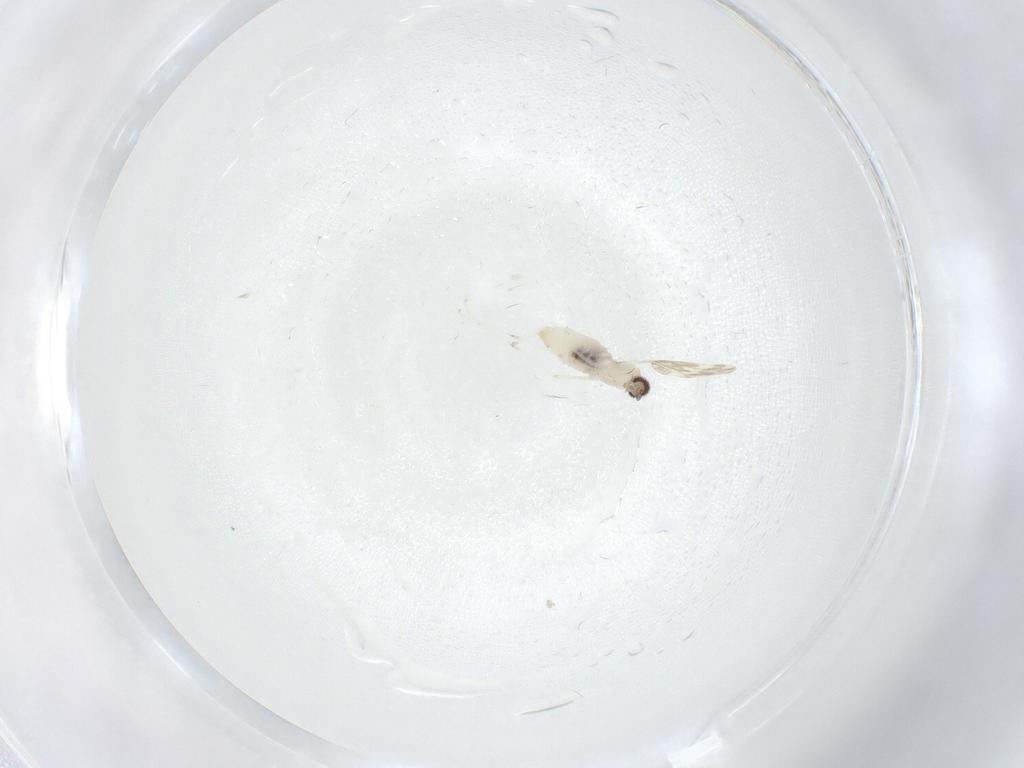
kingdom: Animalia
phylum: Arthropoda
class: Insecta
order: Diptera
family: Cecidomyiidae
